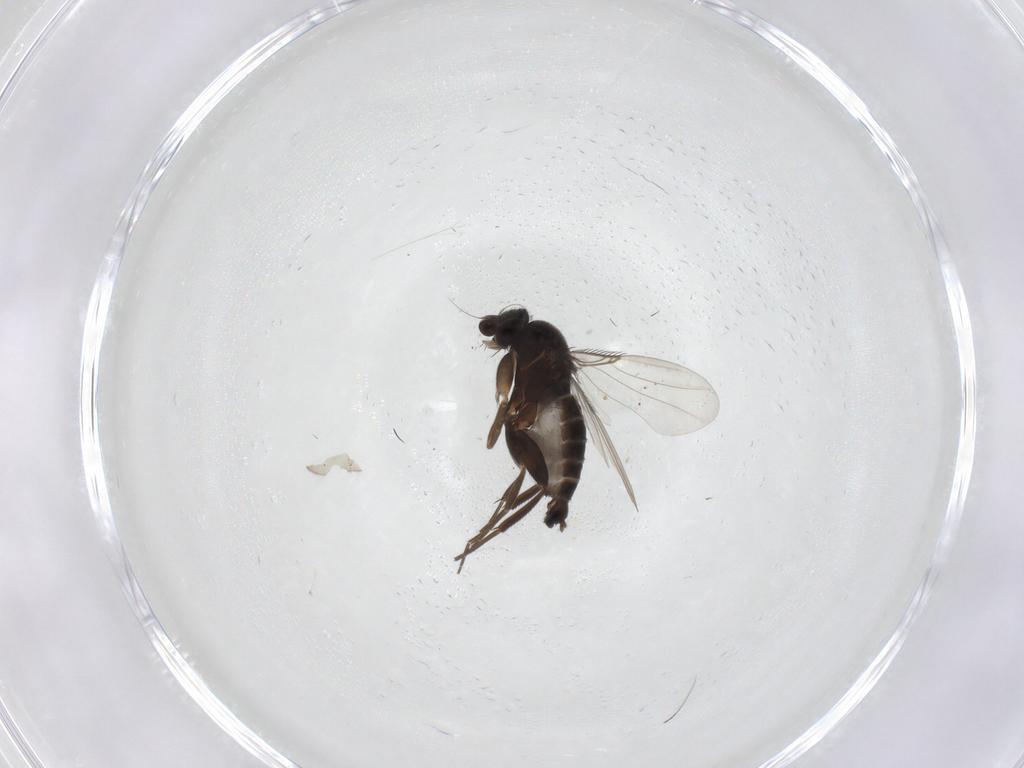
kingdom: Animalia
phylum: Arthropoda
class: Insecta
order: Diptera
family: Muscidae
